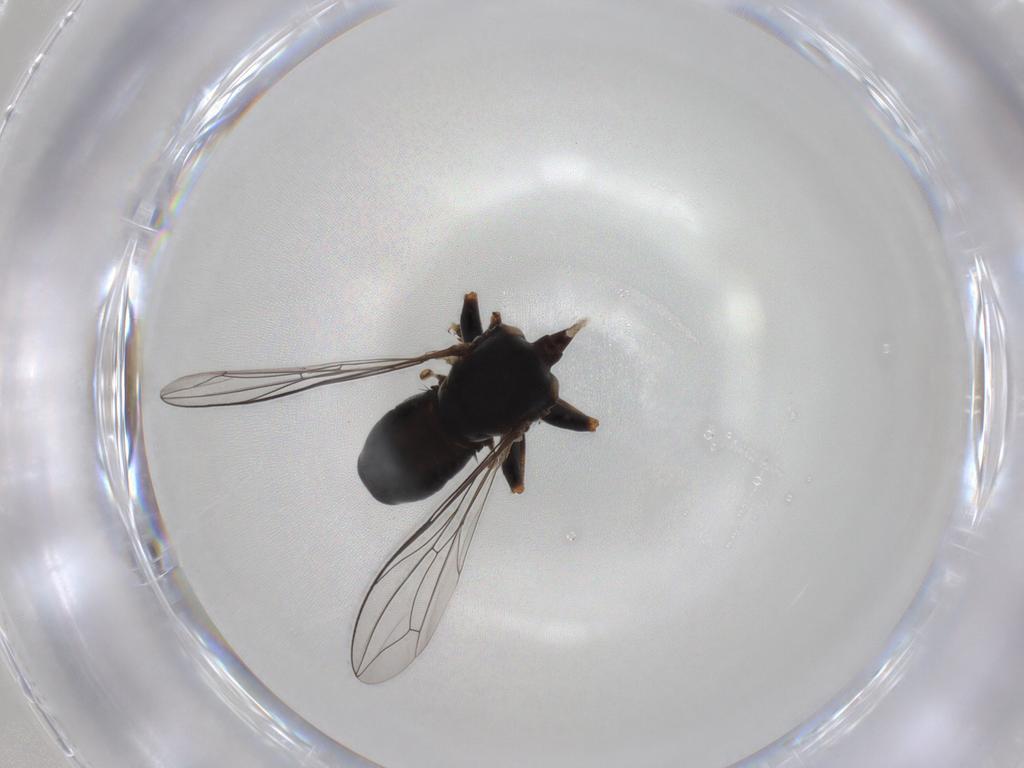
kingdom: Animalia
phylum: Arthropoda
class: Insecta
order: Diptera
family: Pipunculidae
